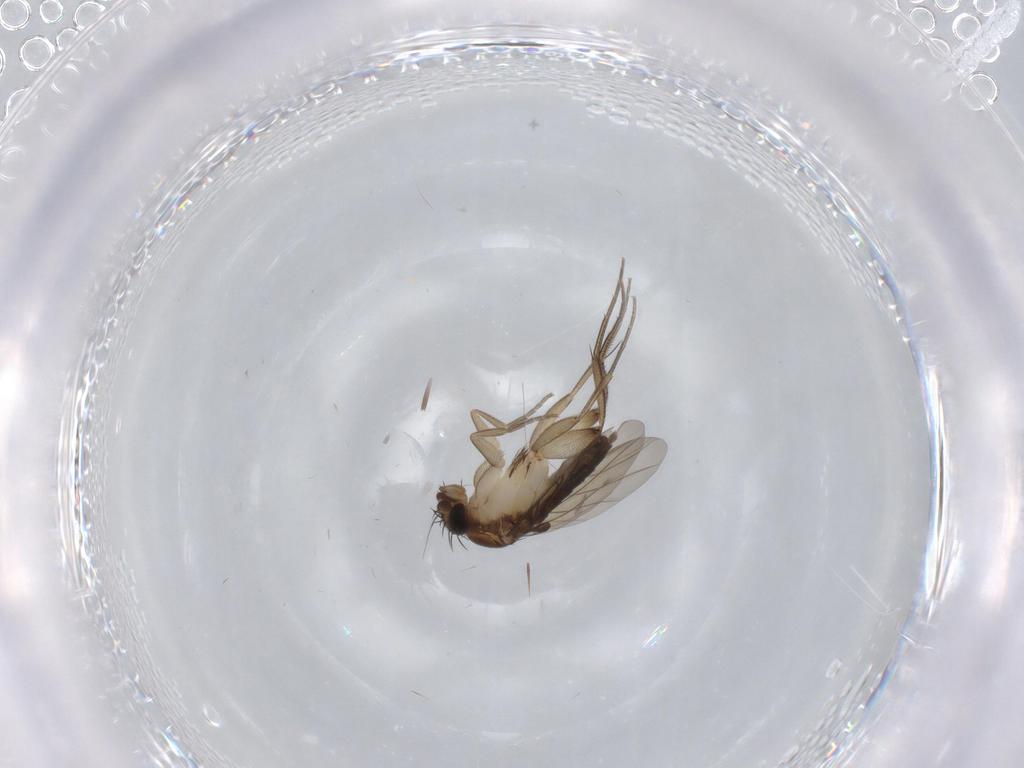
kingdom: Animalia
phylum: Arthropoda
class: Insecta
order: Diptera
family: Phoridae
